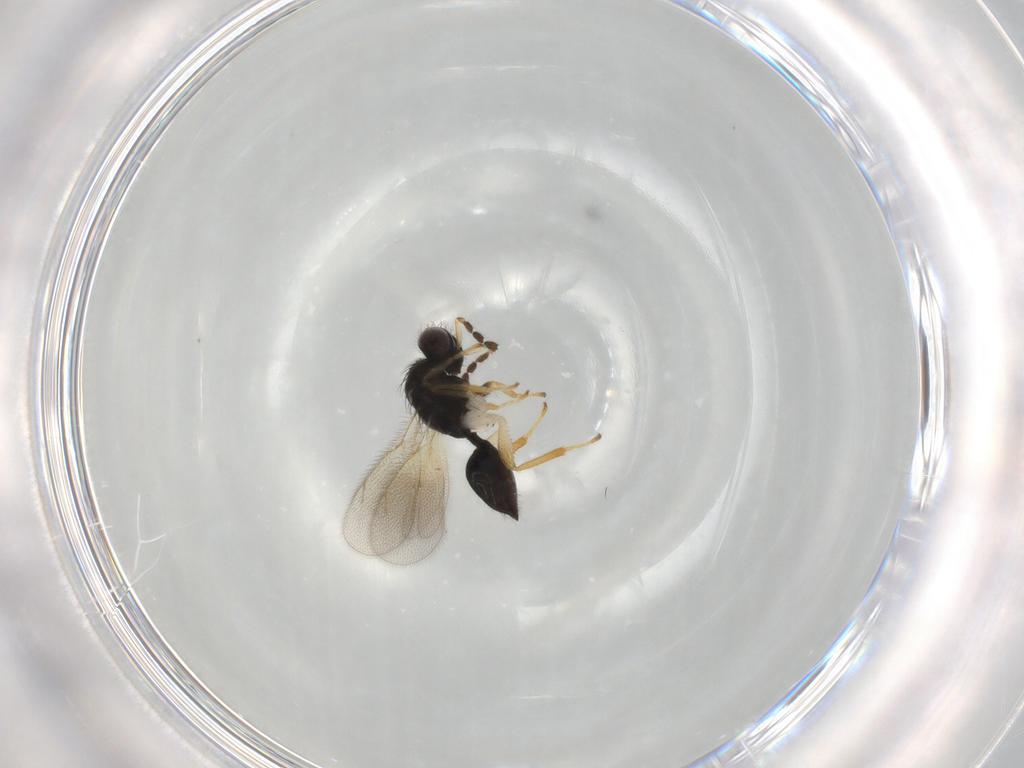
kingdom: Animalia
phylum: Arthropoda
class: Insecta
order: Hymenoptera
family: Eulophidae
